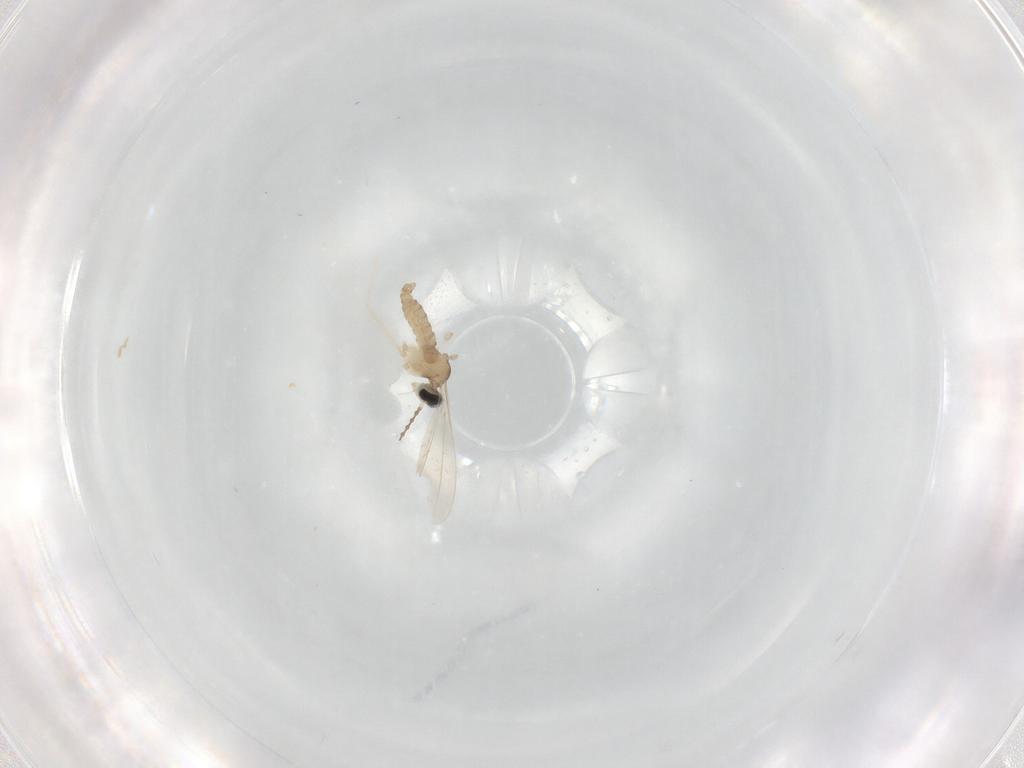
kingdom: Animalia
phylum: Arthropoda
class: Insecta
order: Diptera
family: Cecidomyiidae
